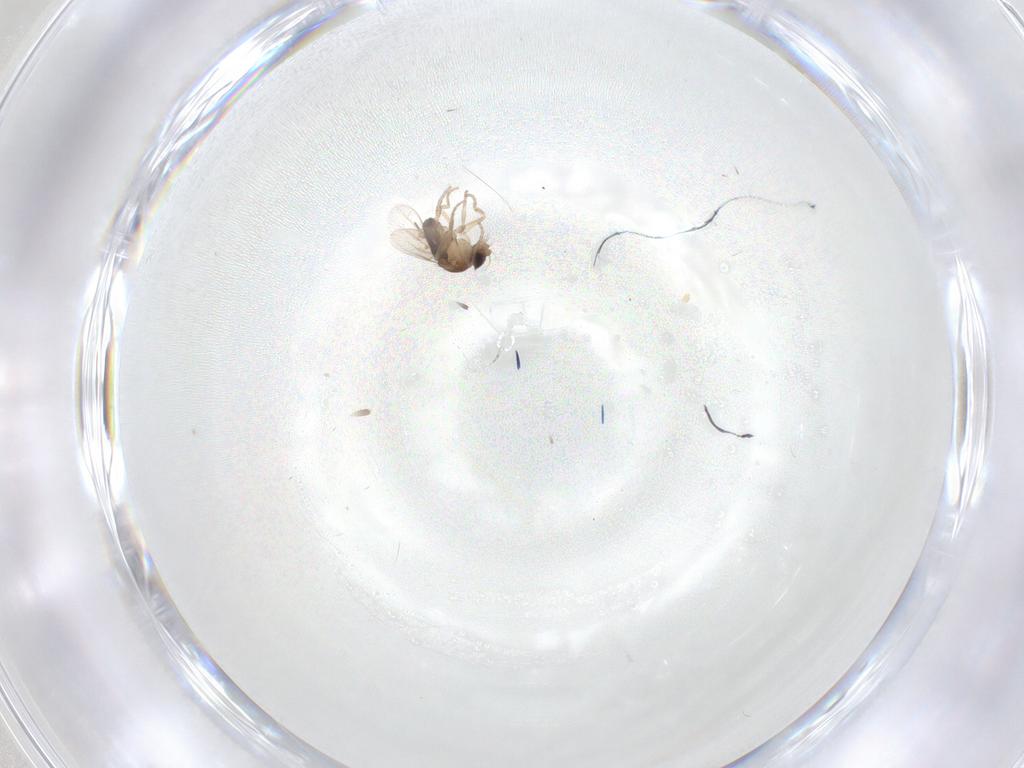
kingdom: Animalia
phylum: Arthropoda
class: Insecta
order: Diptera
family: Phoridae
